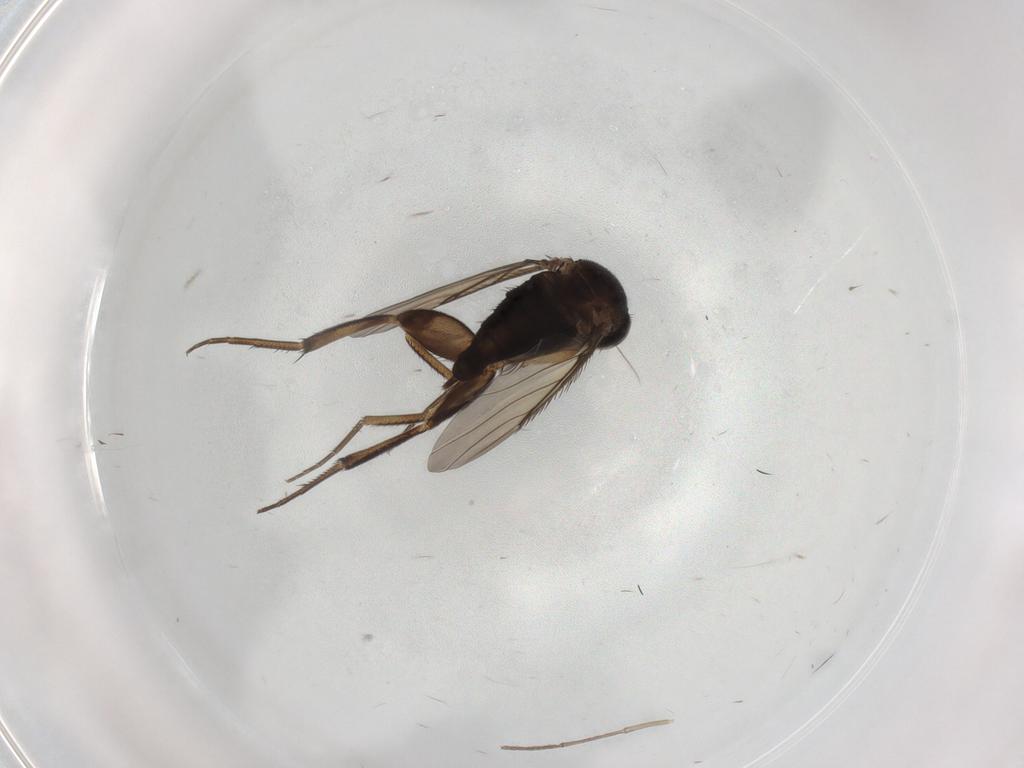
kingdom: Animalia
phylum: Arthropoda
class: Insecta
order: Diptera
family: Phoridae
